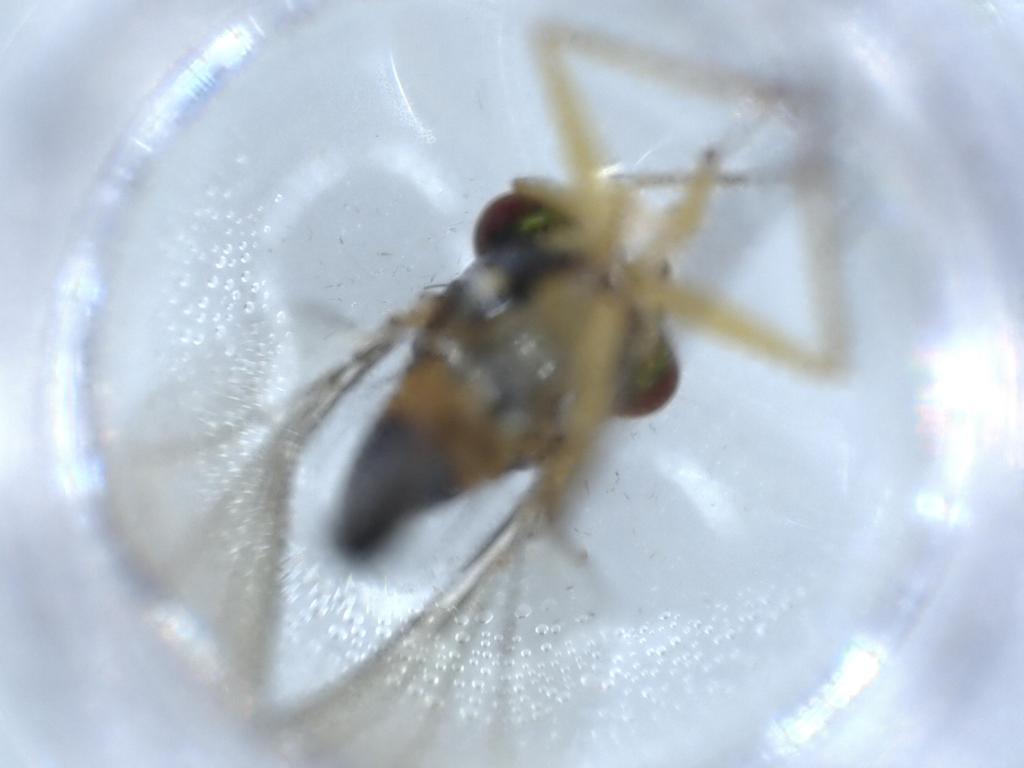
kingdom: Animalia
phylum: Arthropoda
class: Insecta
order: Diptera
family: Dolichopodidae
